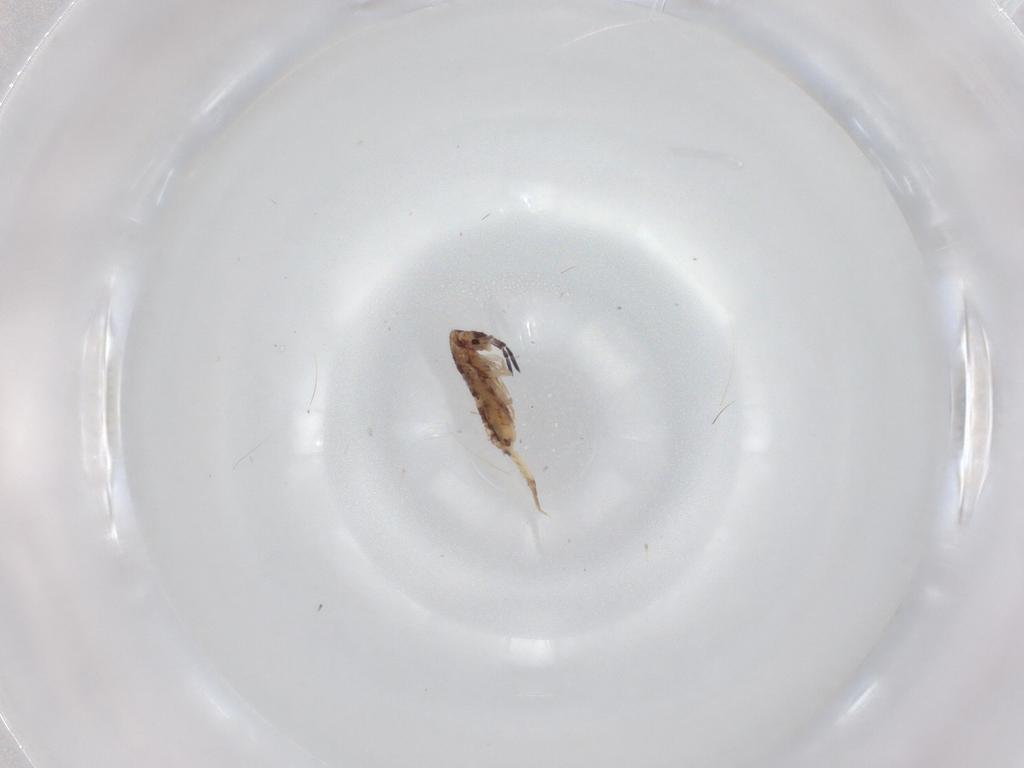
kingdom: Animalia
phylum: Arthropoda
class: Collembola
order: Entomobryomorpha
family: Entomobryidae
